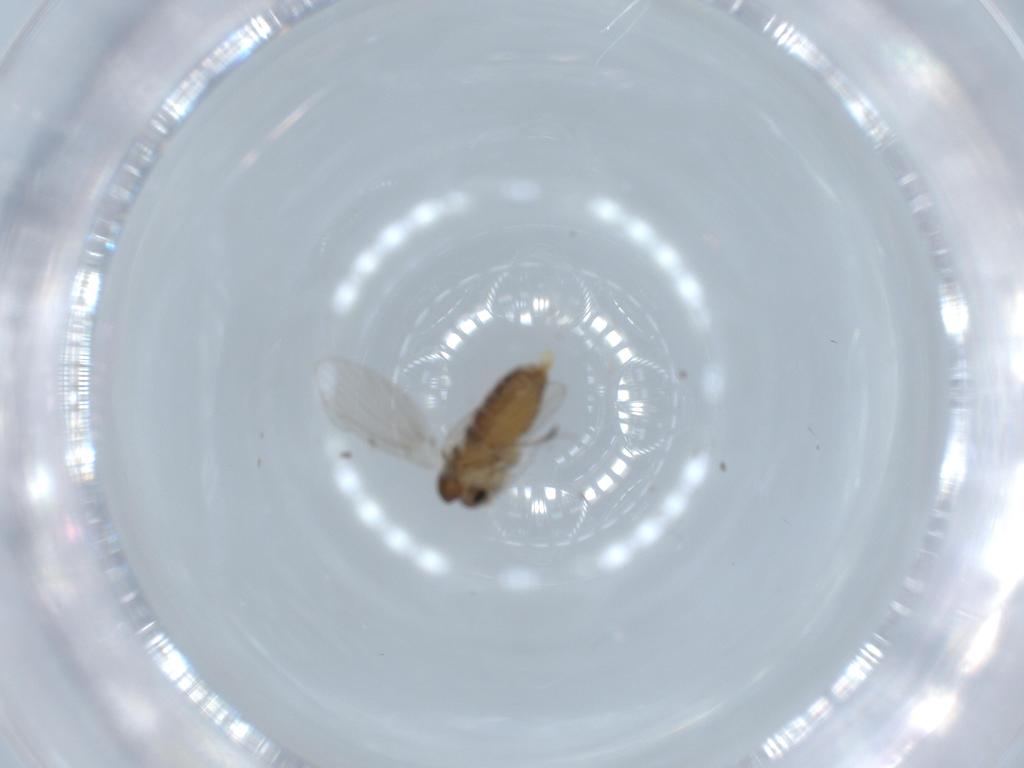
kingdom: Animalia
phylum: Arthropoda
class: Insecta
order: Diptera
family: Cecidomyiidae
